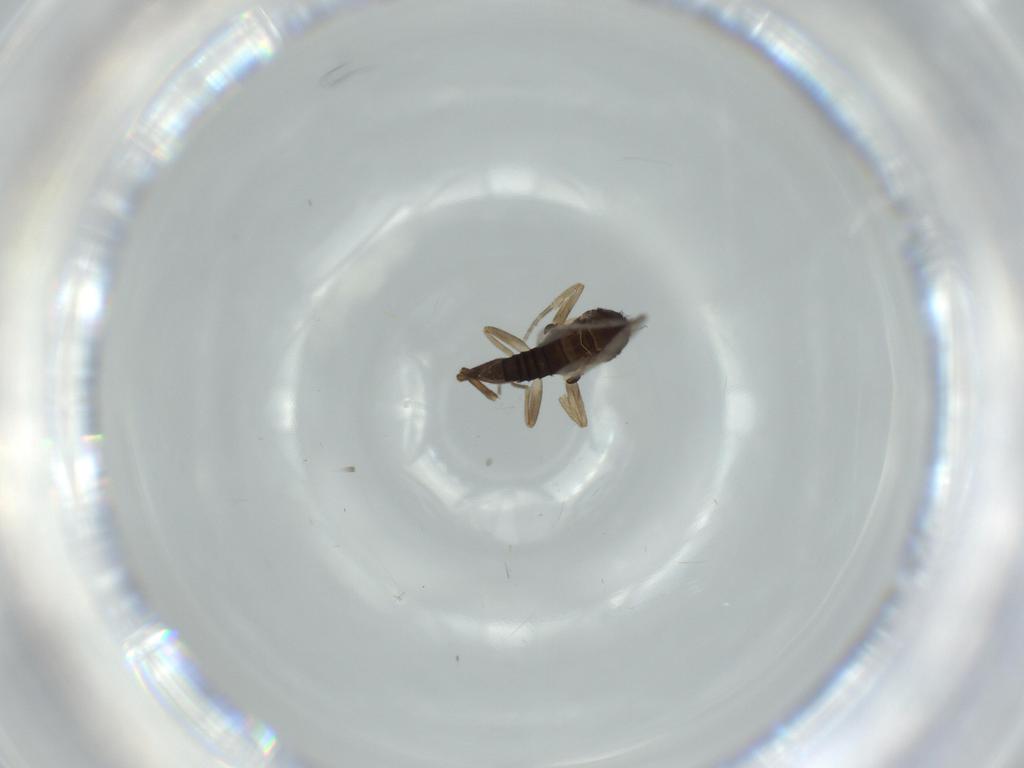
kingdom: Animalia
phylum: Arthropoda
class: Insecta
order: Diptera
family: Phoridae
